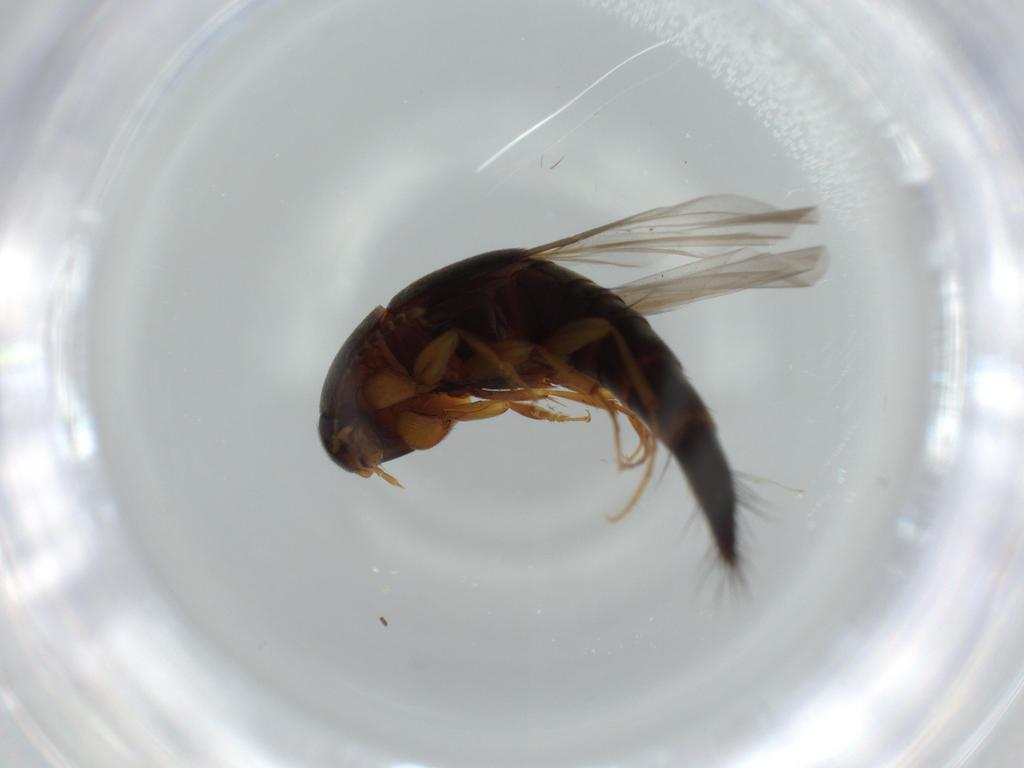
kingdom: Animalia
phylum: Arthropoda
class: Insecta
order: Coleoptera
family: Staphylinidae
